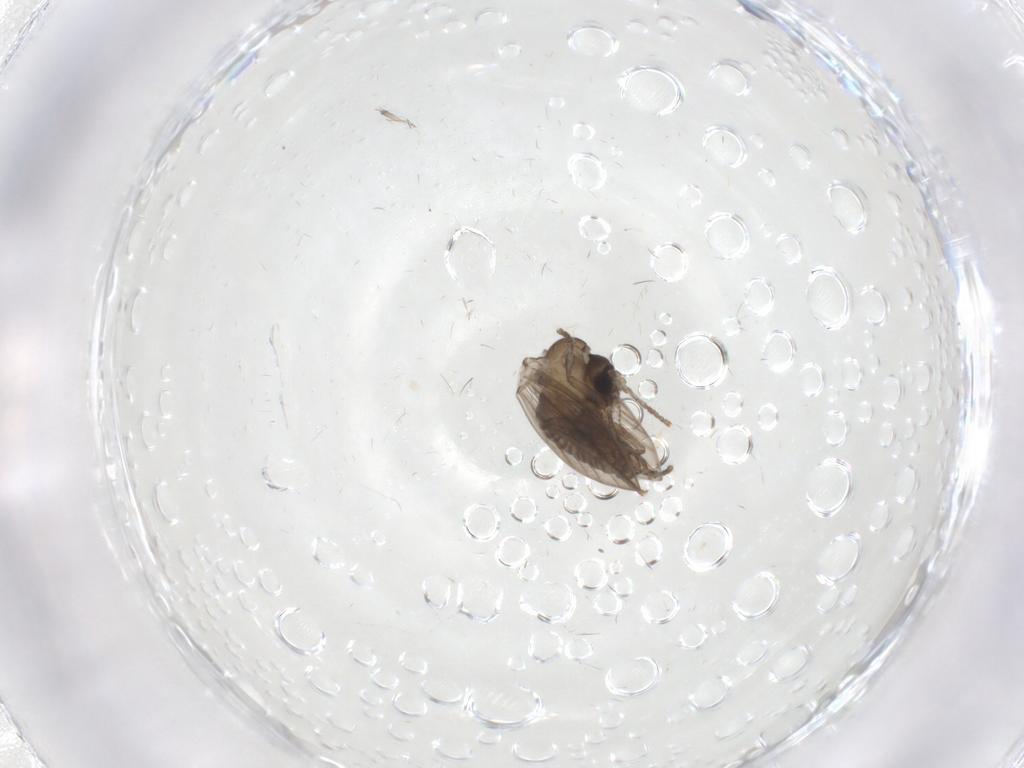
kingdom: Animalia
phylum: Arthropoda
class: Insecta
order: Diptera
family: Psychodidae
